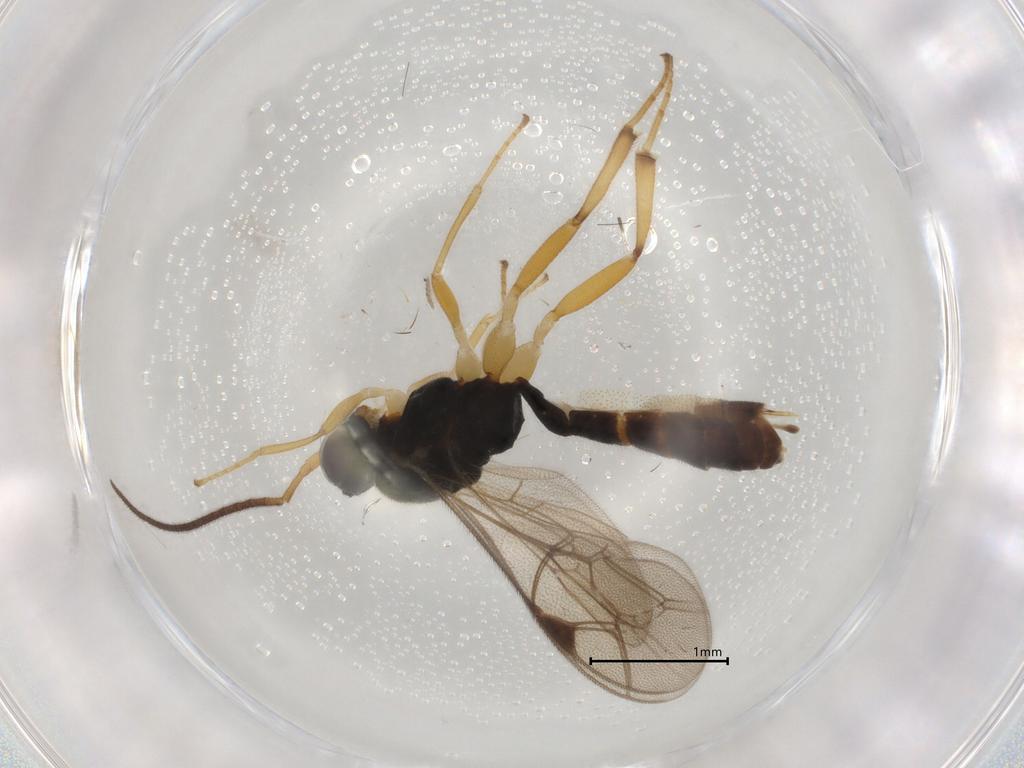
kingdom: Animalia
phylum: Arthropoda
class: Insecta
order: Hymenoptera
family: Ichneumonidae
